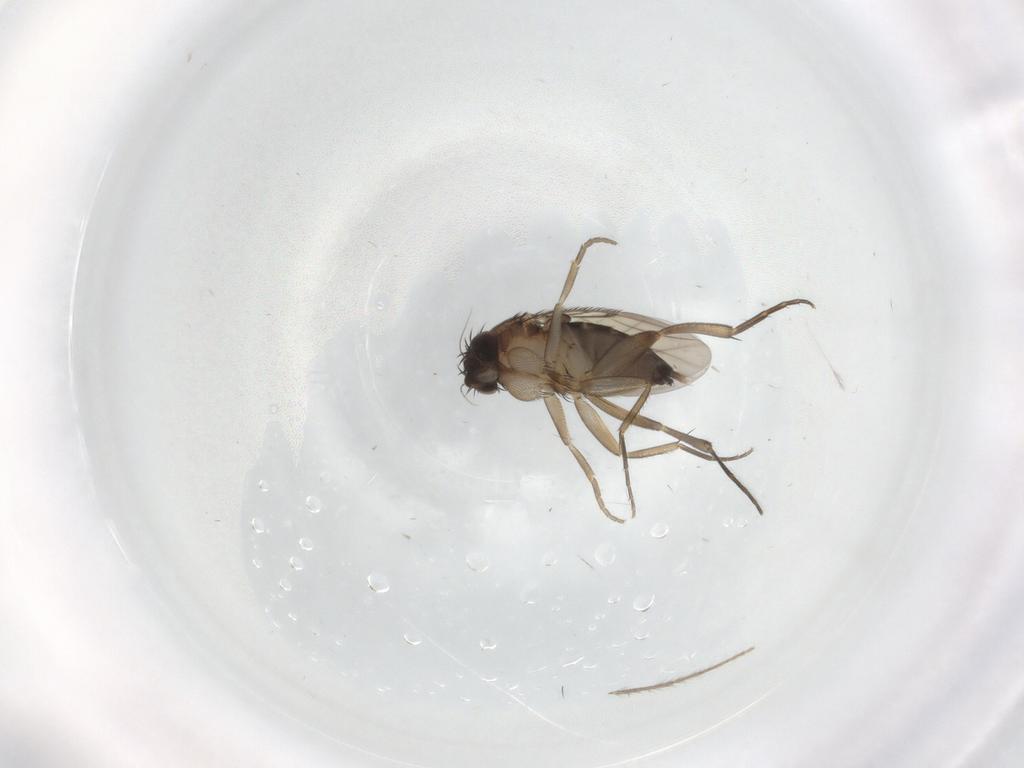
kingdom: Animalia
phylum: Arthropoda
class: Insecta
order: Diptera
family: Phoridae
